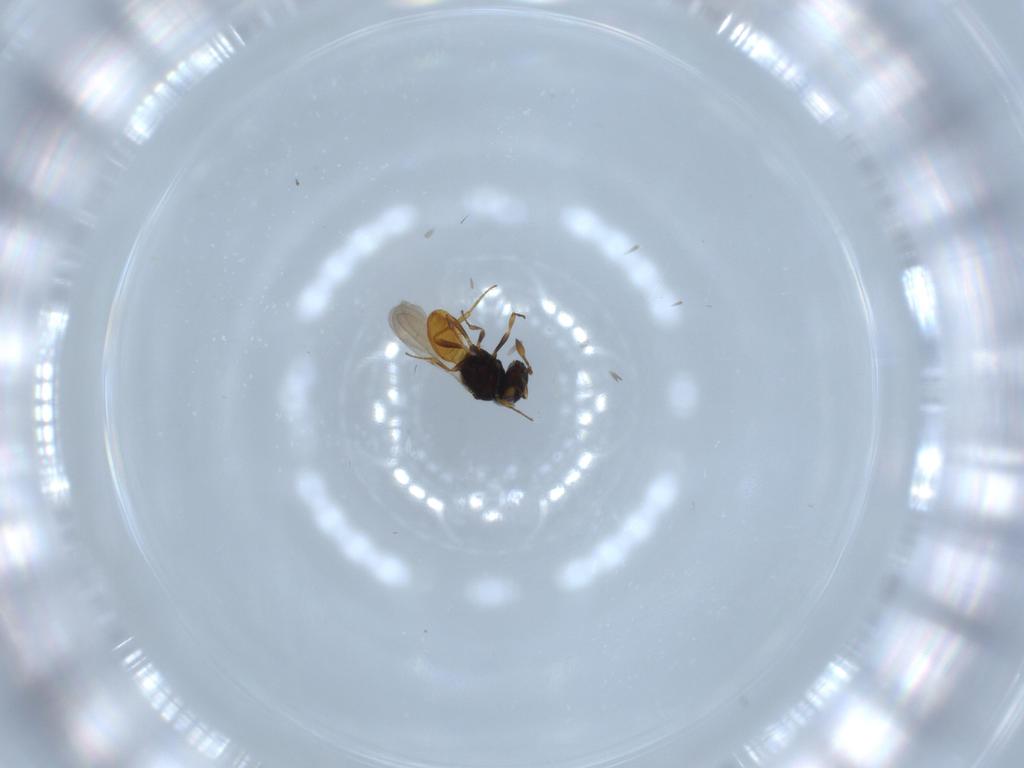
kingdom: Animalia
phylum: Arthropoda
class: Insecta
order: Hymenoptera
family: Scelionidae
